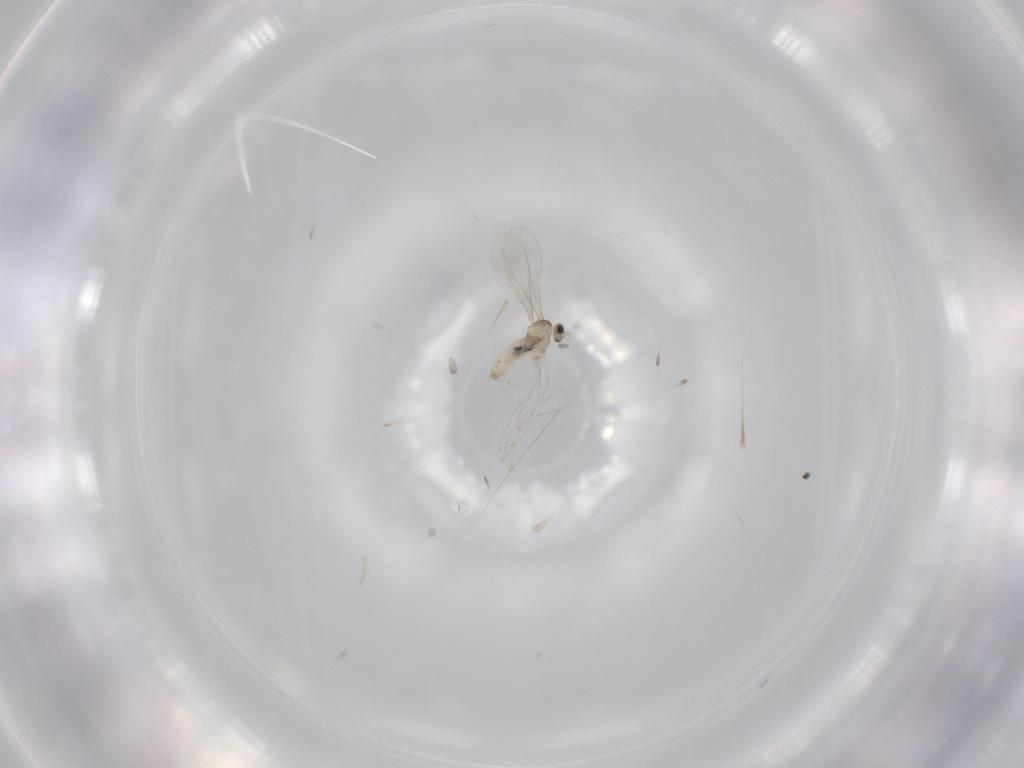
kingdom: Animalia
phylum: Arthropoda
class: Insecta
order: Diptera
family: Cecidomyiidae
